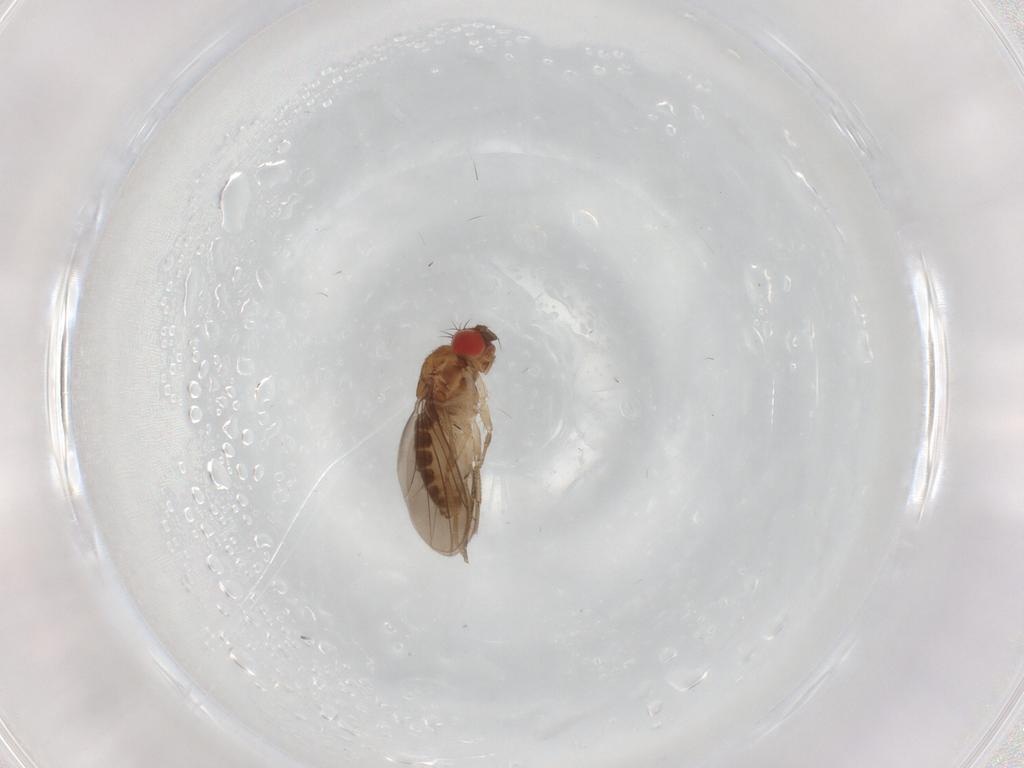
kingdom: Animalia
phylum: Arthropoda
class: Insecta
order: Diptera
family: Drosophilidae
